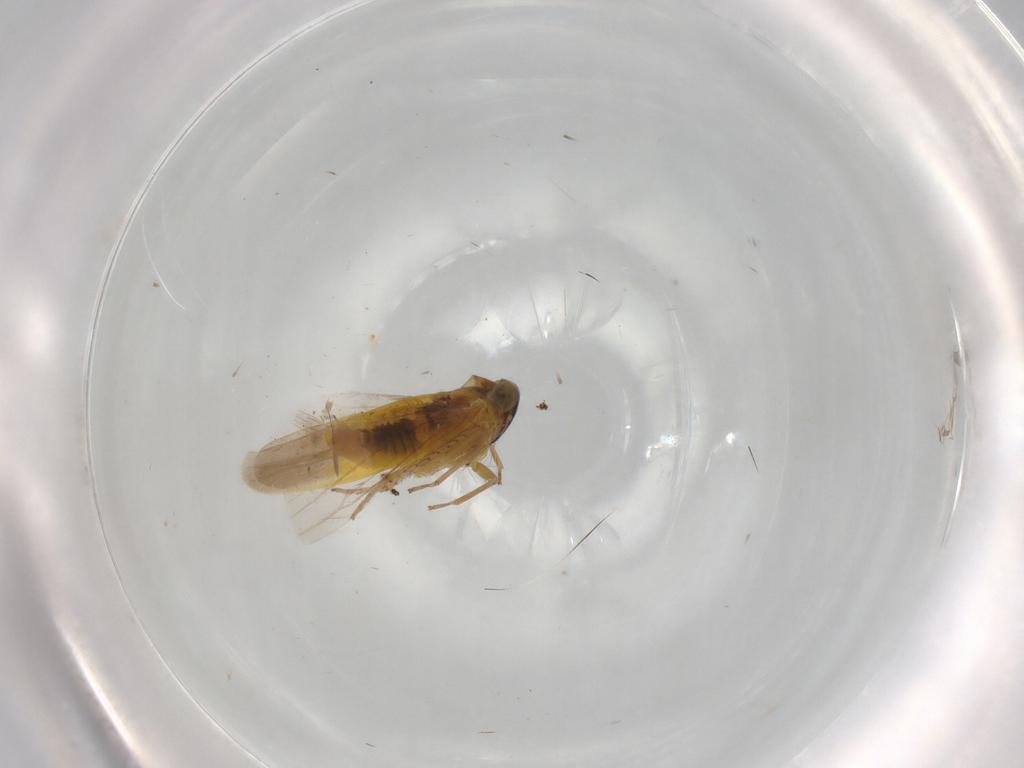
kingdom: Animalia
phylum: Arthropoda
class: Insecta
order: Hemiptera
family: Cicadellidae
